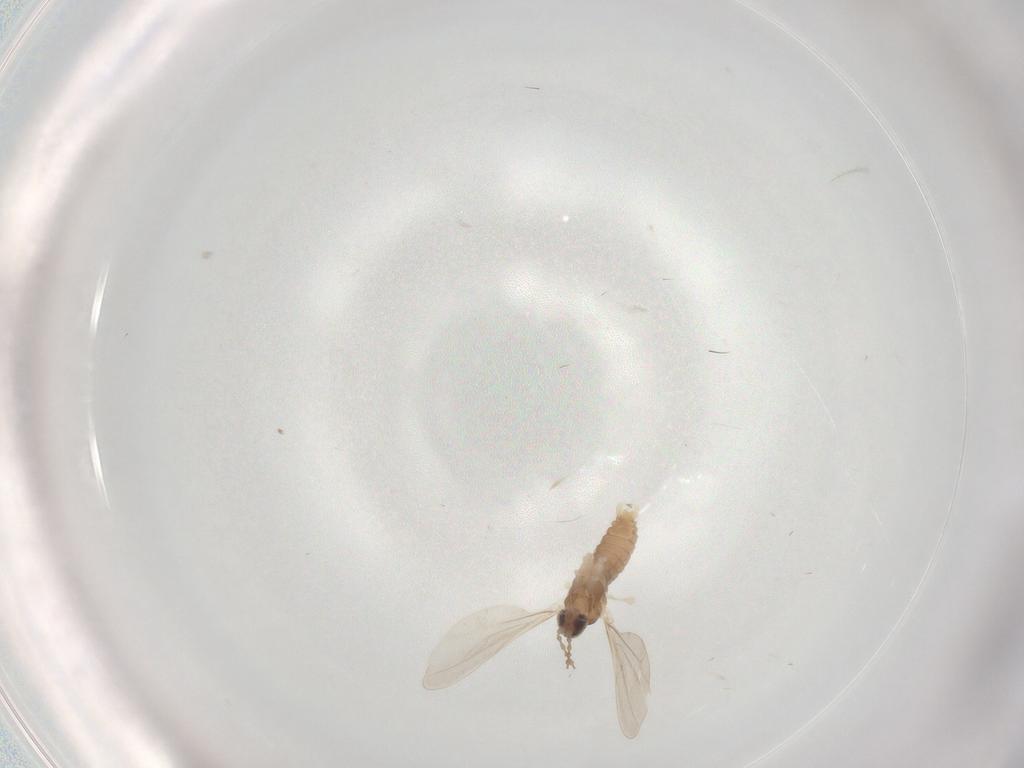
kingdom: Animalia
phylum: Arthropoda
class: Insecta
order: Diptera
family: Cecidomyiidae
